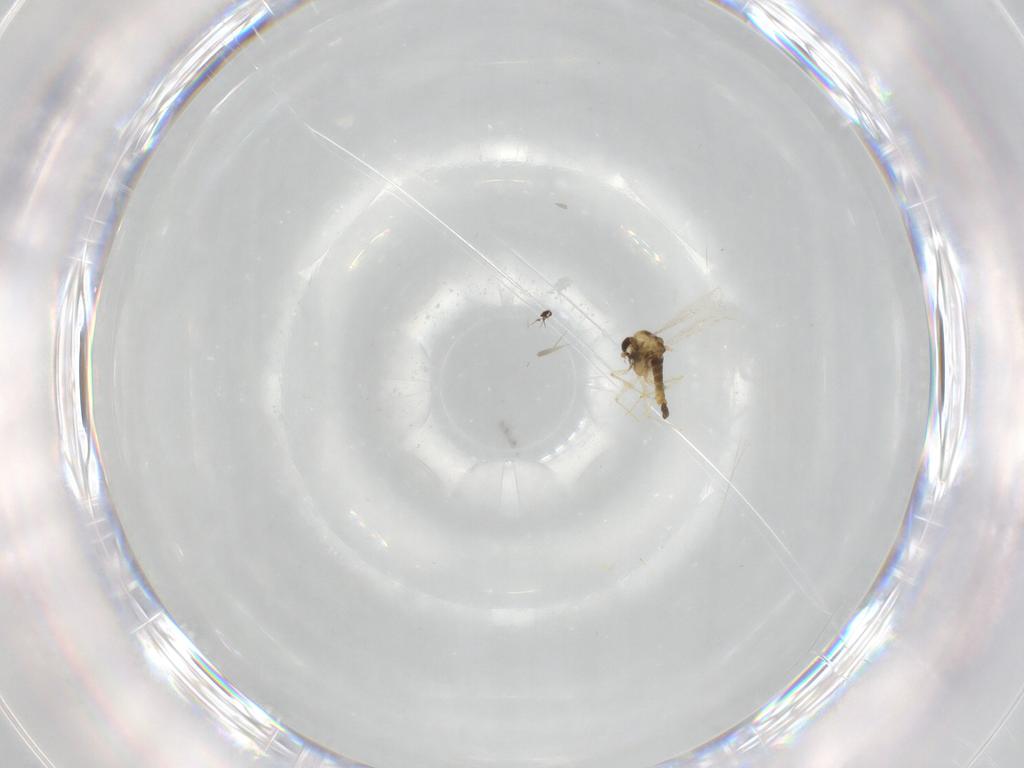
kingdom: Animalia
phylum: Arthropoda
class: Insecta
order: Diptera
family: Chironomidae
